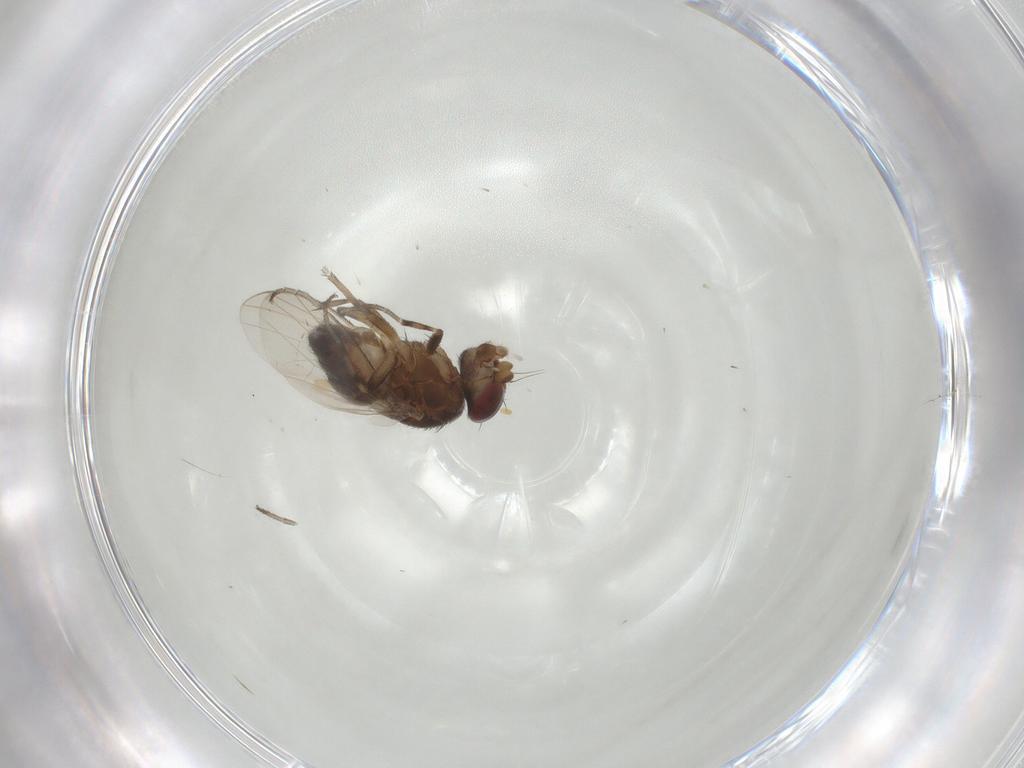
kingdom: Animalia
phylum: Arthropoda
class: Insecta
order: Diptera
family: Heleomyzidae
